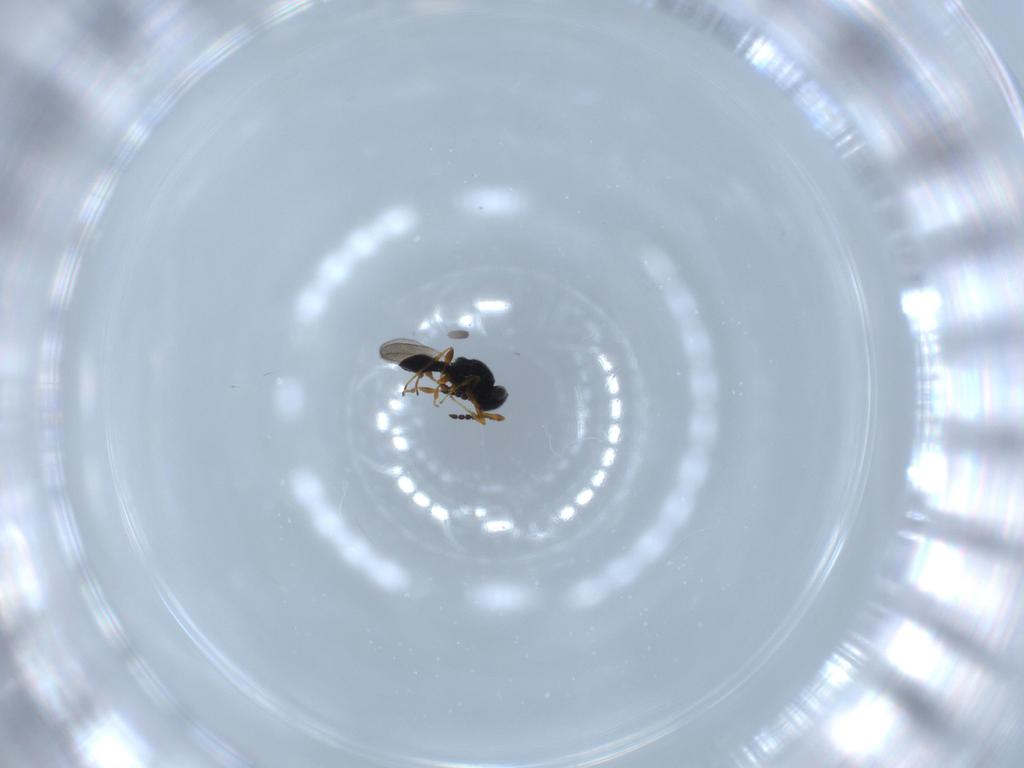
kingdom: Animalia
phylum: Arthropoda
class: Insecta
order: Hymenoptera
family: Platygastridae
